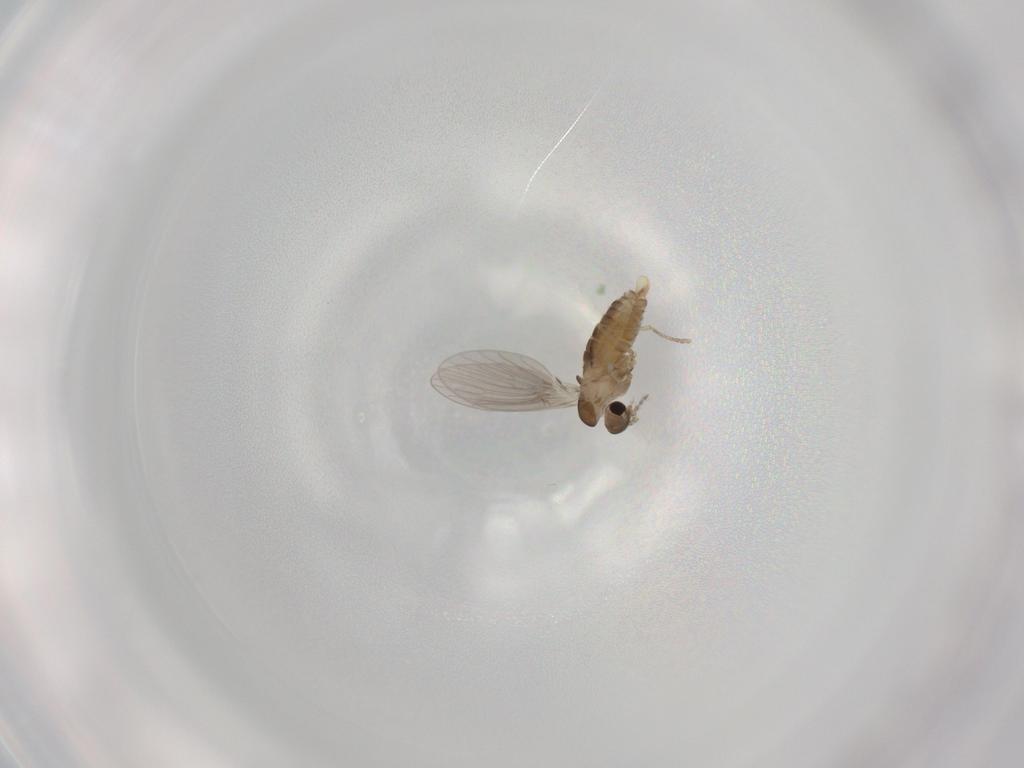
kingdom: Animalia
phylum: Arthropoda
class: Insecta
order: Diptera
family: Psychodidae
